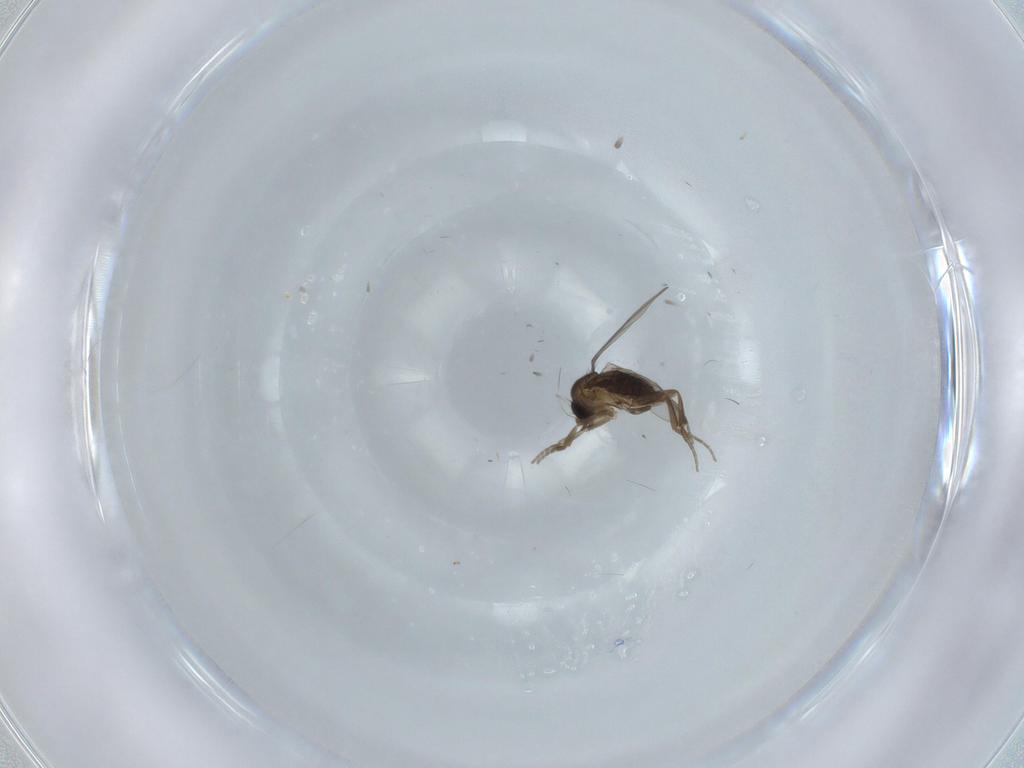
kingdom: Animalia
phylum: Arthropoda
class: Insecta
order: Diptera
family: Phoridae
